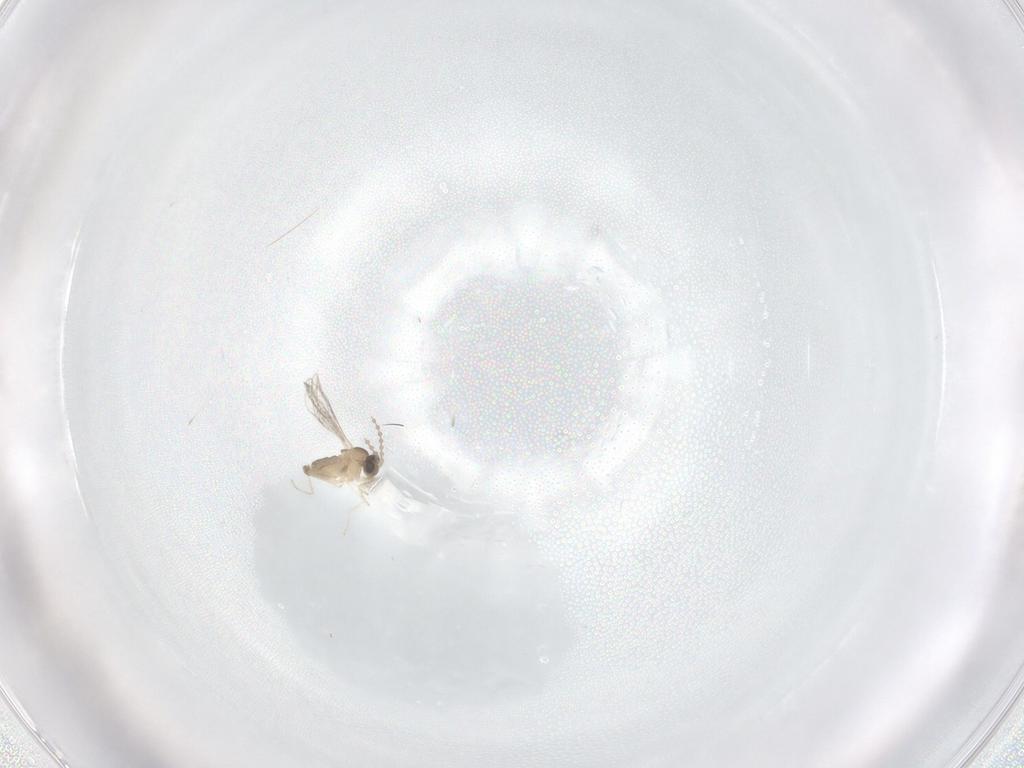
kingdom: Animalia
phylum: Arthropoda
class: Insecta
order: Diptera
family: Cecidomyiidae
